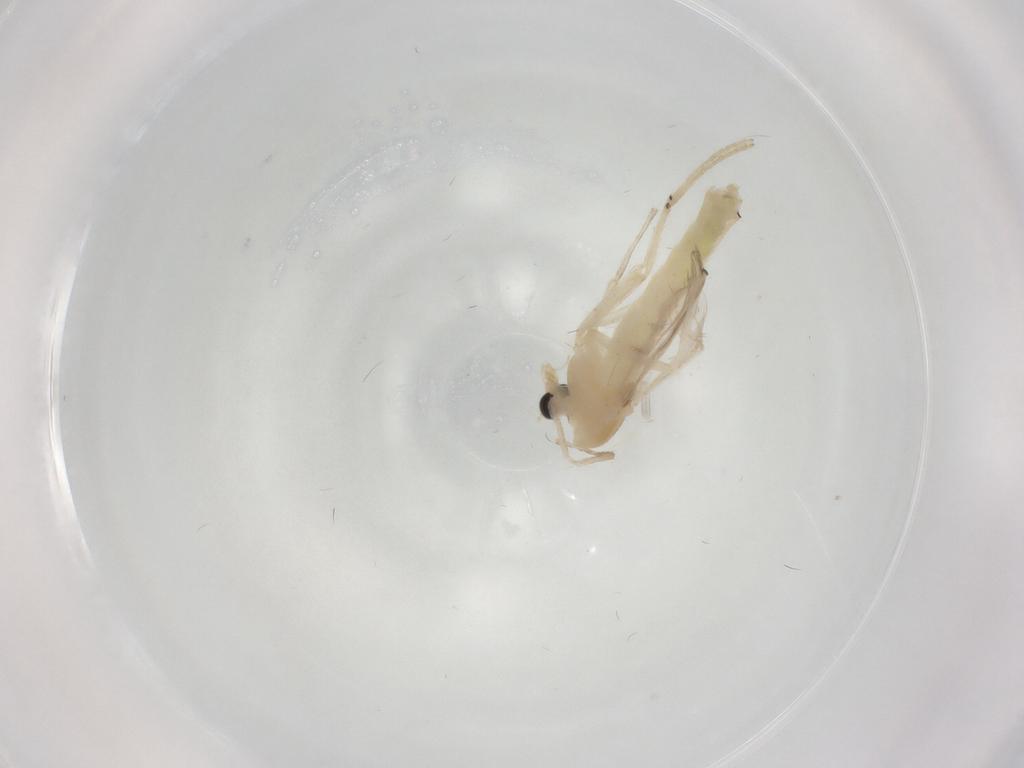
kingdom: Animalia
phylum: Arthropoda
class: Insecta
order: Diptera
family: Chironomidae
